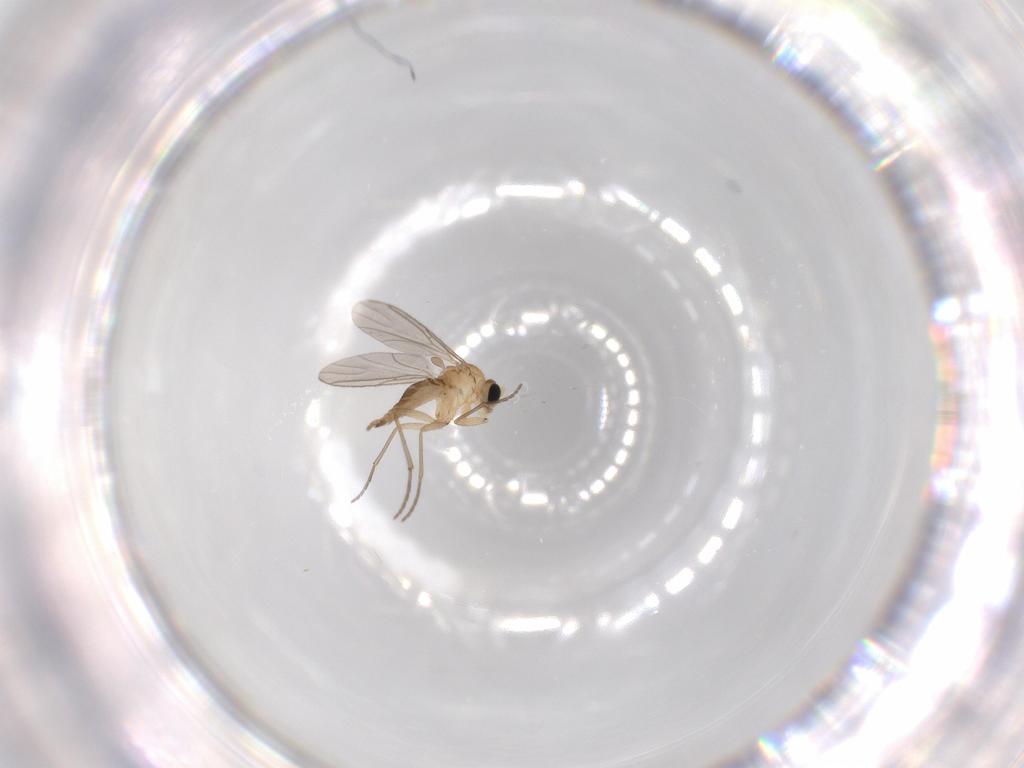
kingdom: Animalia
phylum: Arthropoda
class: Insecta
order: Diptera
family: Sciaridae
